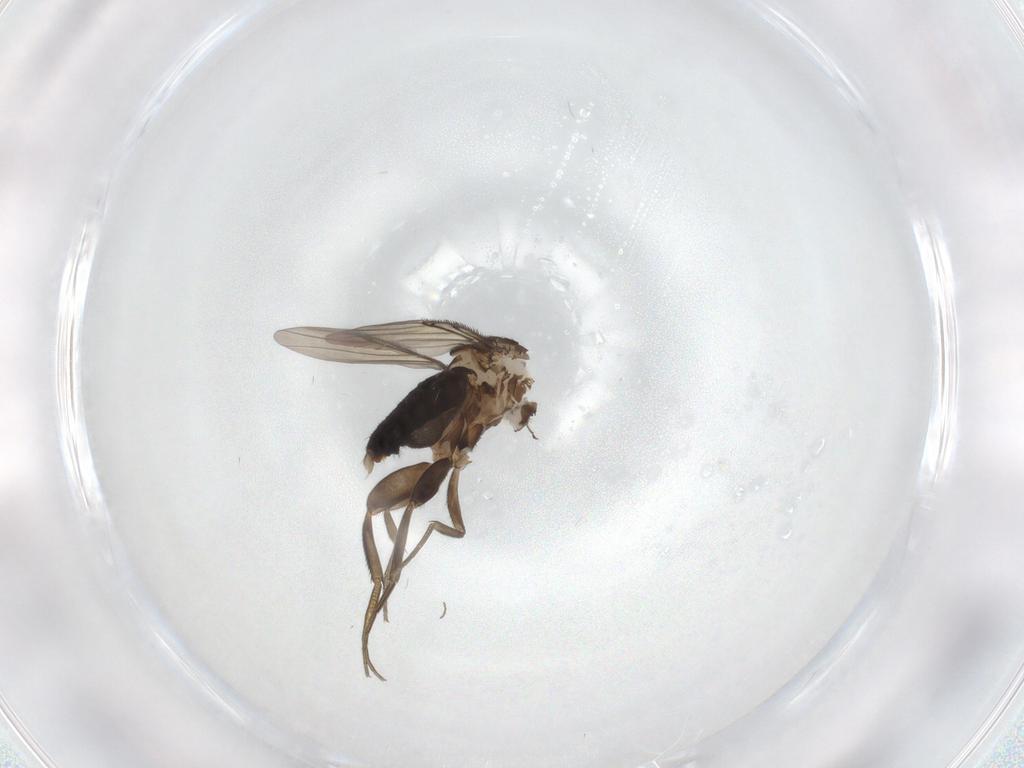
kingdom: Animalia
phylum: Arthropoda
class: Insecta
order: Diptera
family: Phoridae
